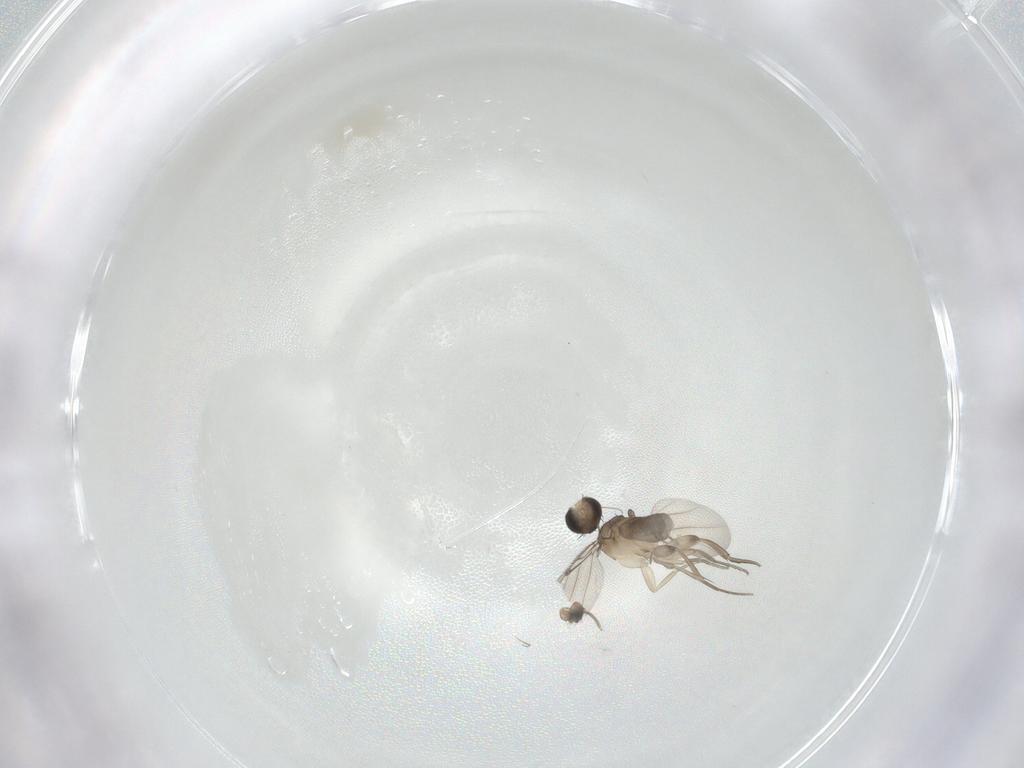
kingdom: Animalia
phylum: Arthropoda
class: Insecta
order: Diptera
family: Phoridae
